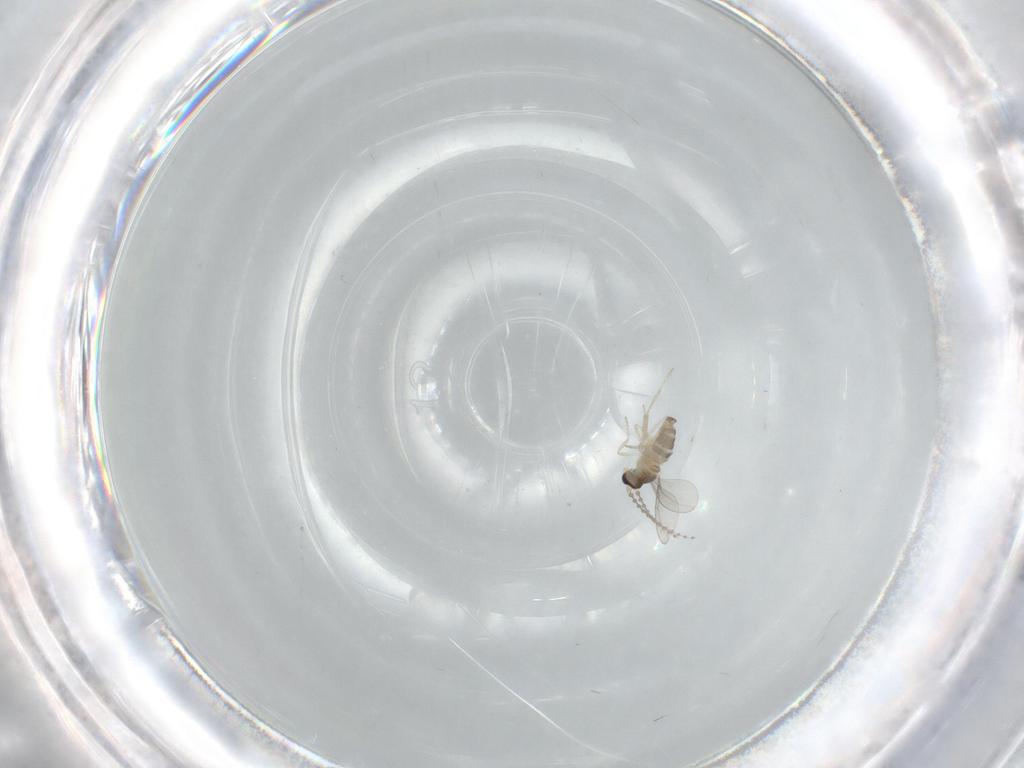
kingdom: Animalia
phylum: Arthropoda
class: Insecta
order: Diptera
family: Cecidomyiidae
